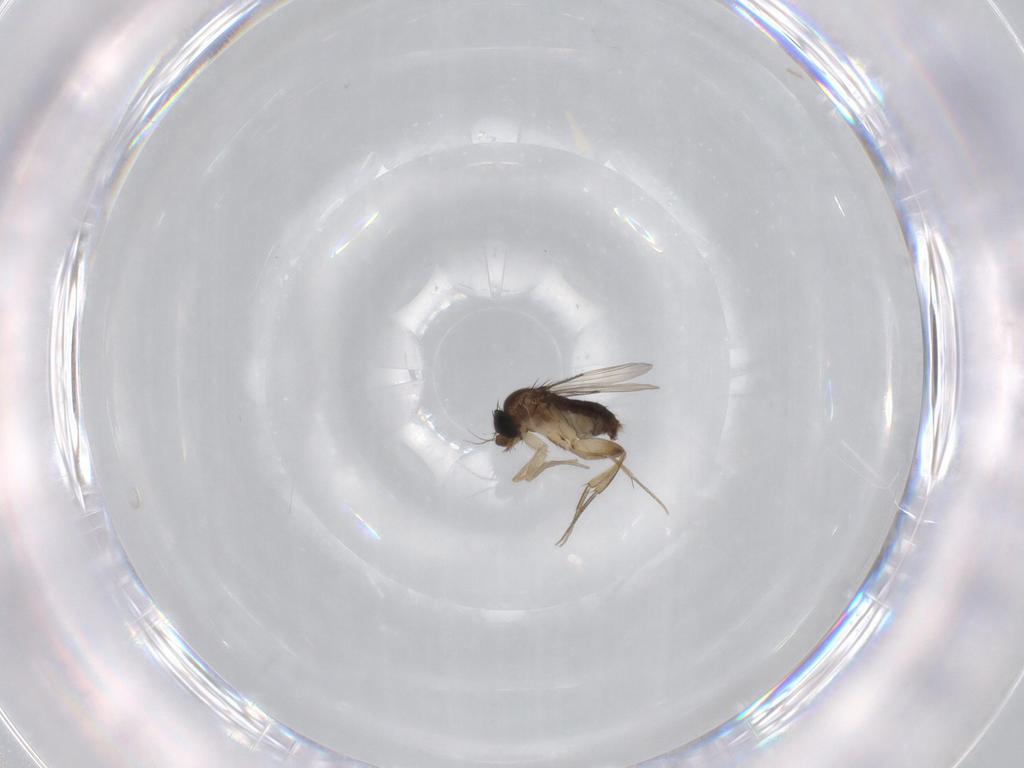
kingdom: Animalia
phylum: Arthropoda
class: Insecta
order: Diptera
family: Phoridae
